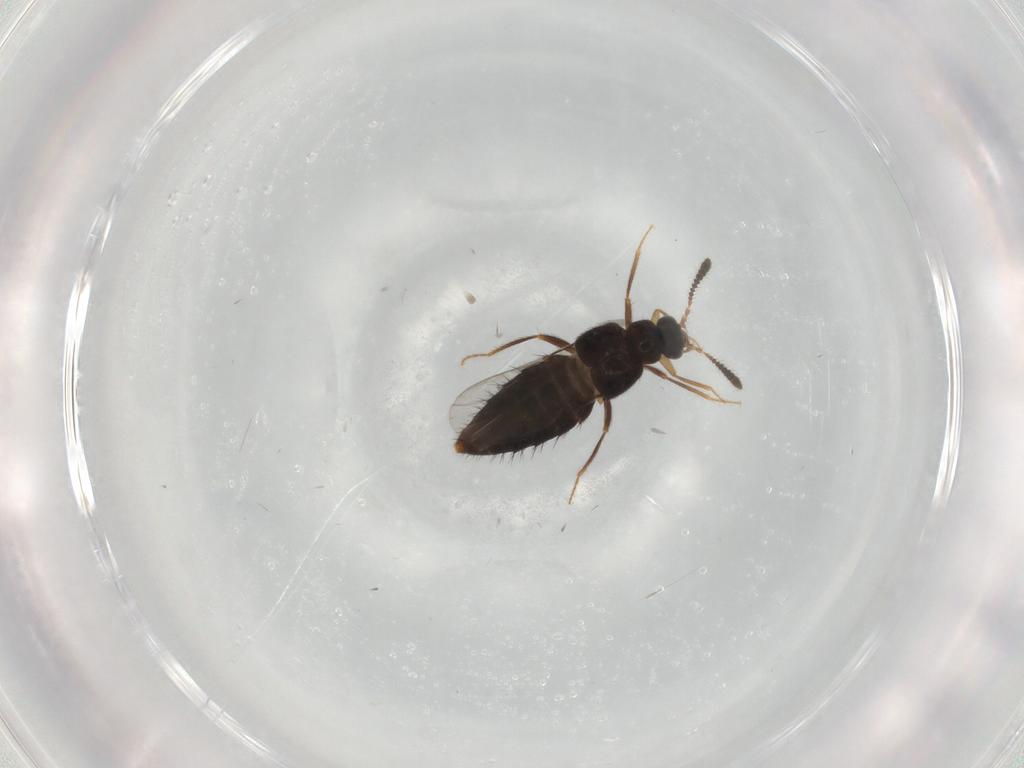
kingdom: Animalia
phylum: Arthropoda
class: Insecta
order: Coleoptera
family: Staphylinidae
